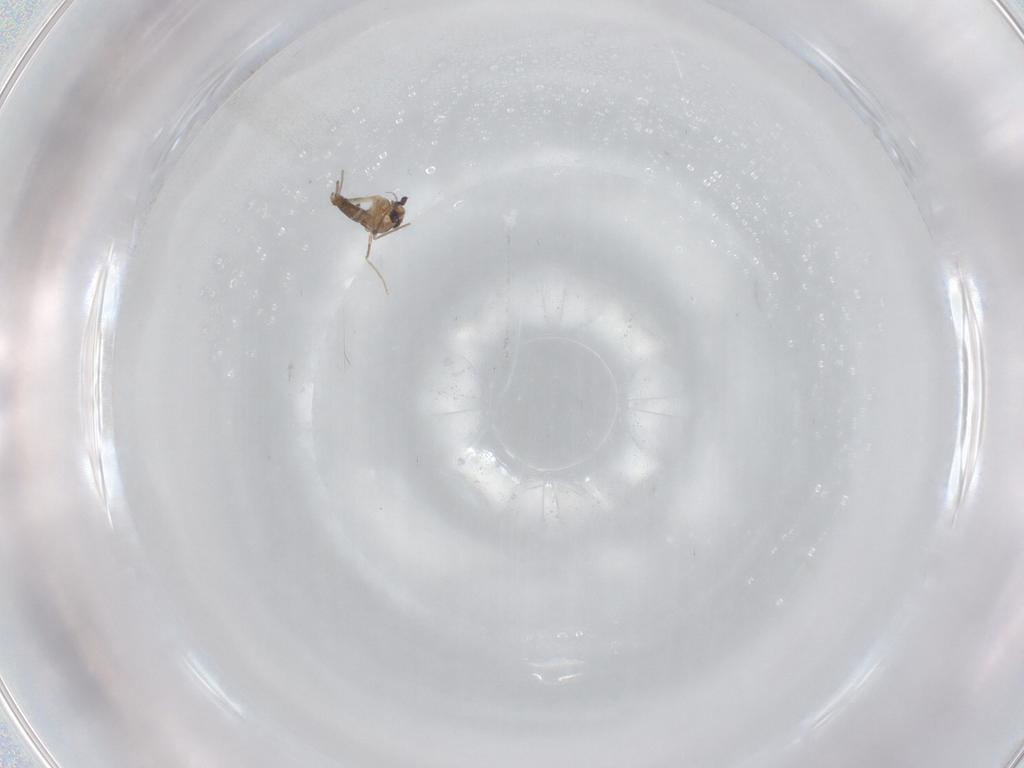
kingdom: Animalia
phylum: Arthropoda
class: Insecta
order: Diptera
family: Chironomidae
